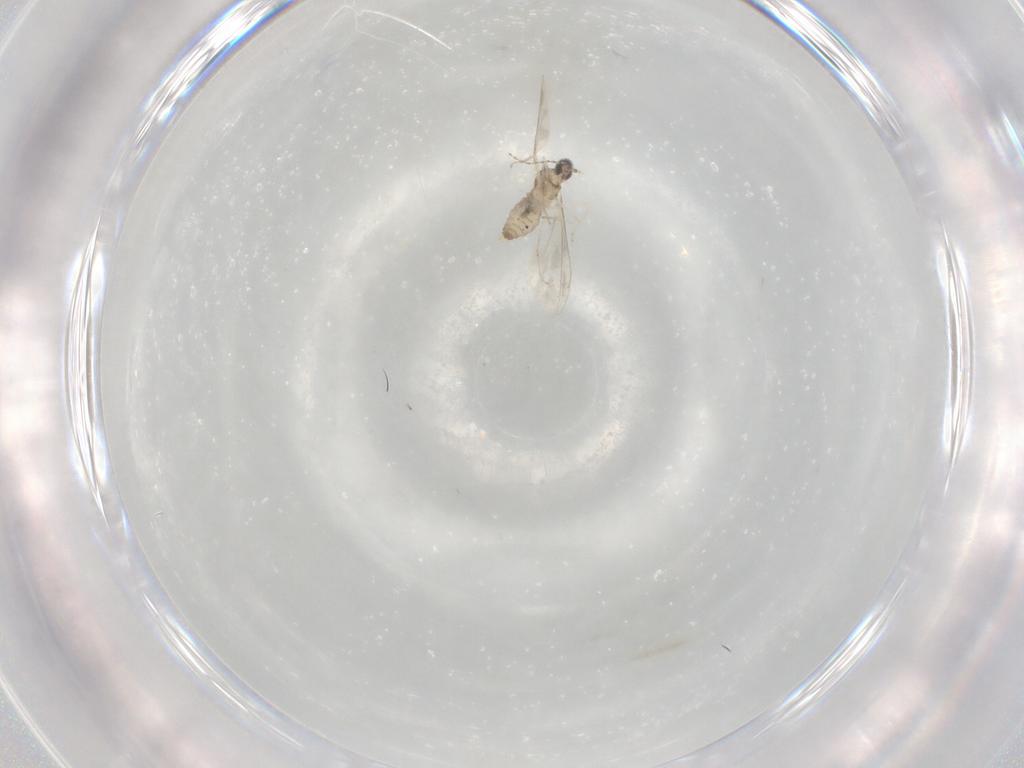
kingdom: Animalia
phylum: Arthropoda
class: Insecta
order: Diptera
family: Cecidomyiidae
